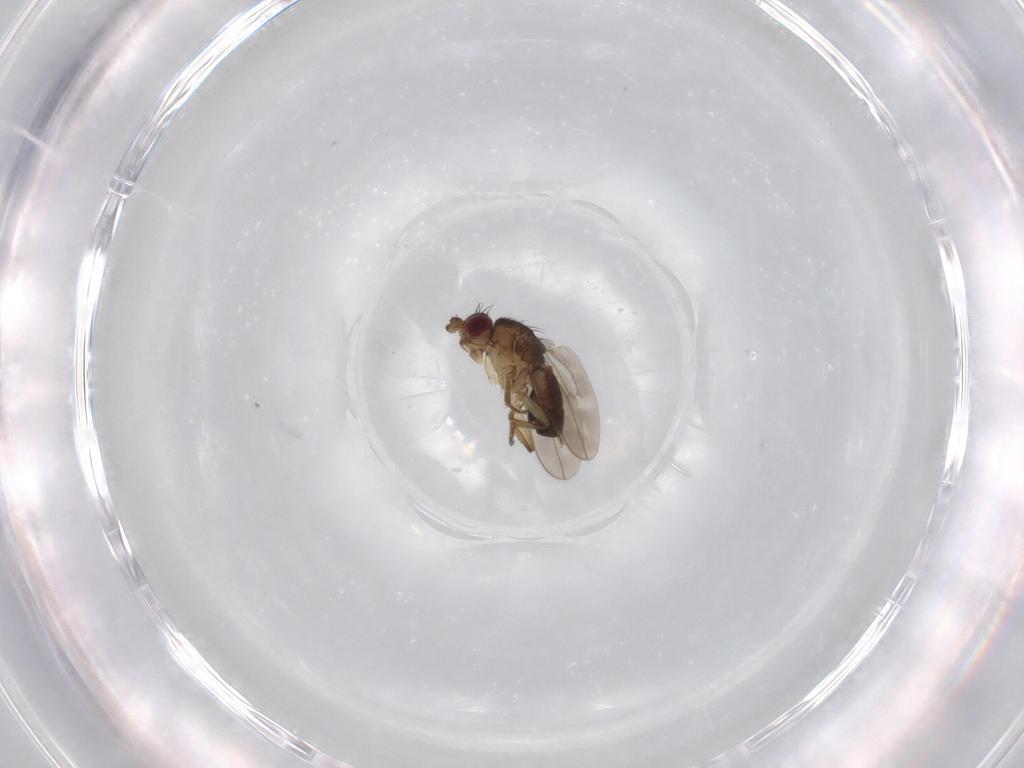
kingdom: Animalia
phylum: Arthropoda
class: Insecta
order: Diptera
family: Sphaeroceridae
